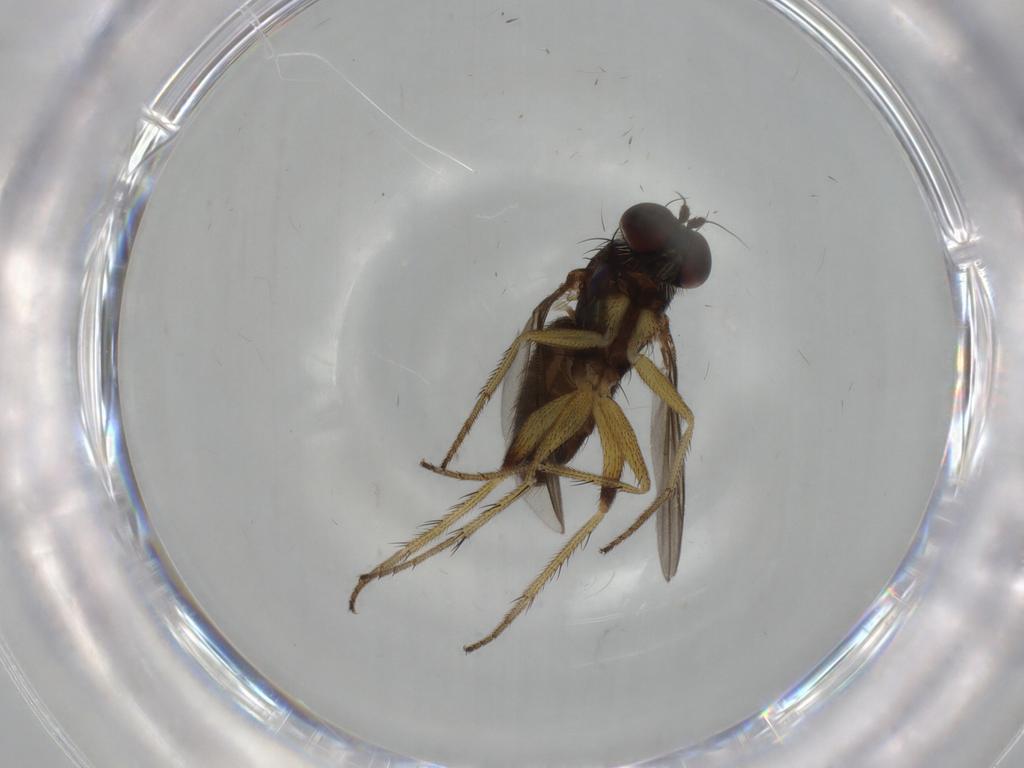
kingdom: Animalia
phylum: Arthropoda
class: Insecta
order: Diptera
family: Dolichopodidae
